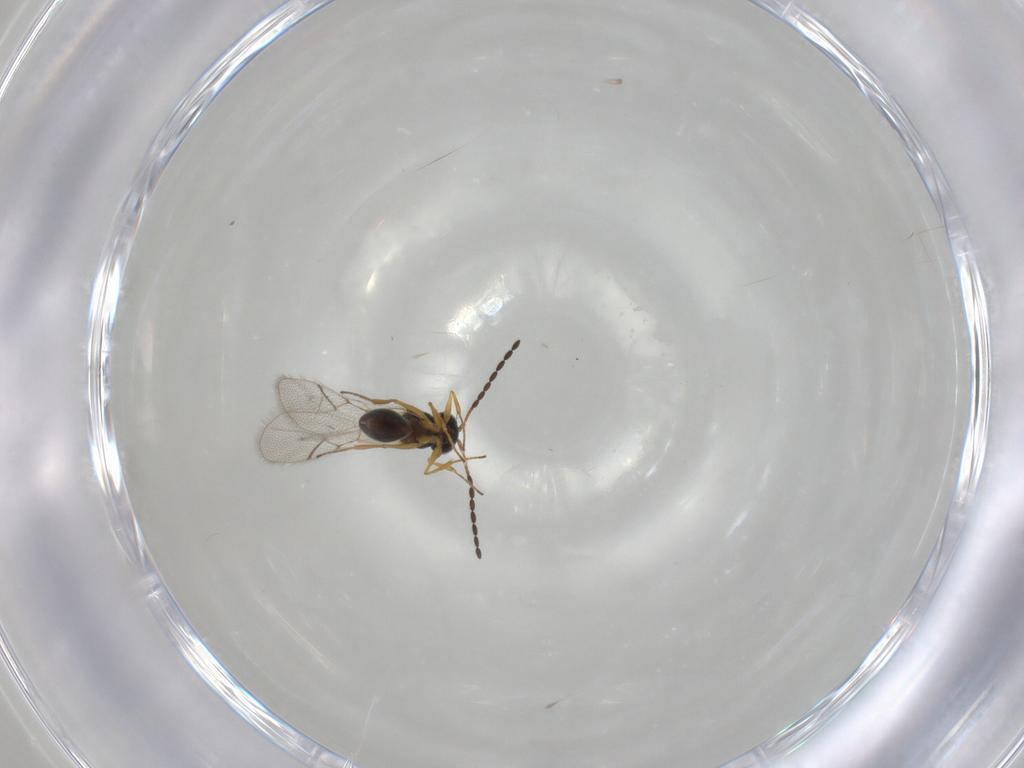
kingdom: Animalia
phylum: Arthropoda
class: Insecta
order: Hymenoptera
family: Figitidae
